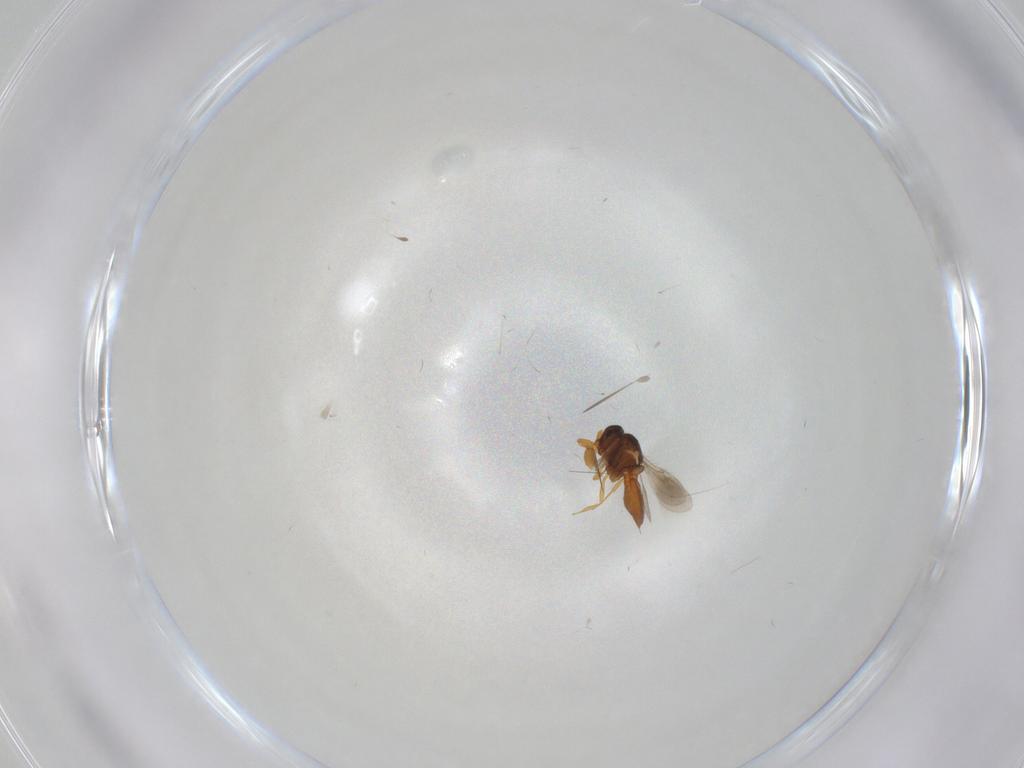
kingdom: Animalia
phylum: Arthropoda
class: Insecta
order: Hymenoptera
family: Scelionidae
